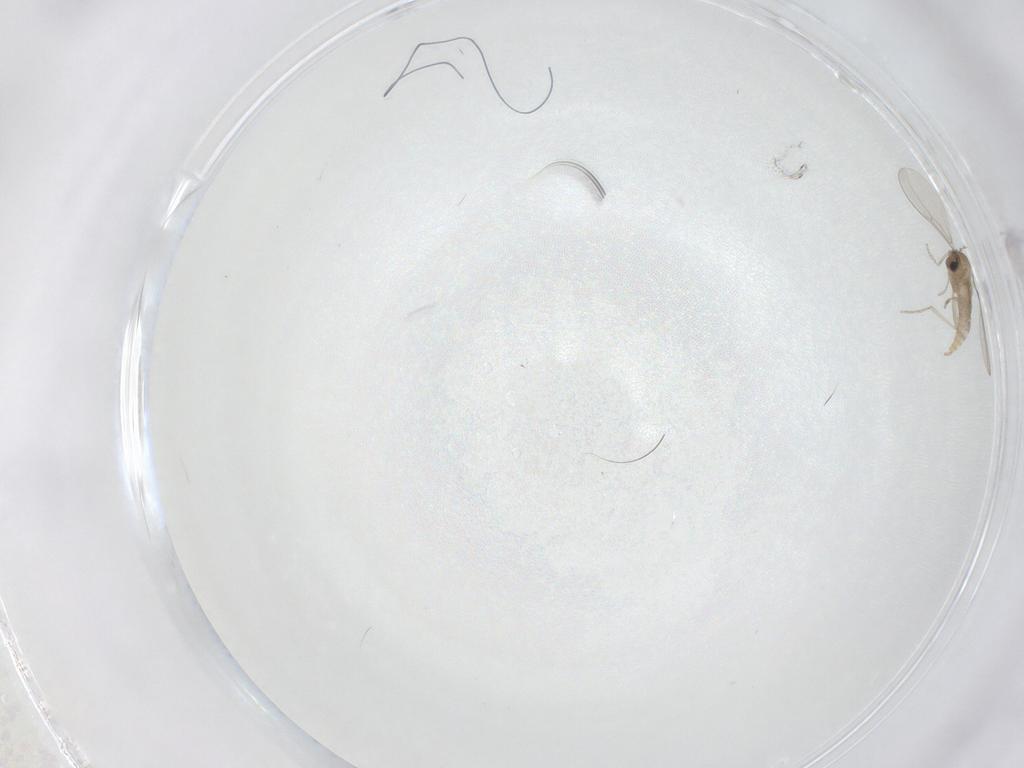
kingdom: Animalia
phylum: Arthropoda
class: Insecta
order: Diptera
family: Cecidomyiidae
